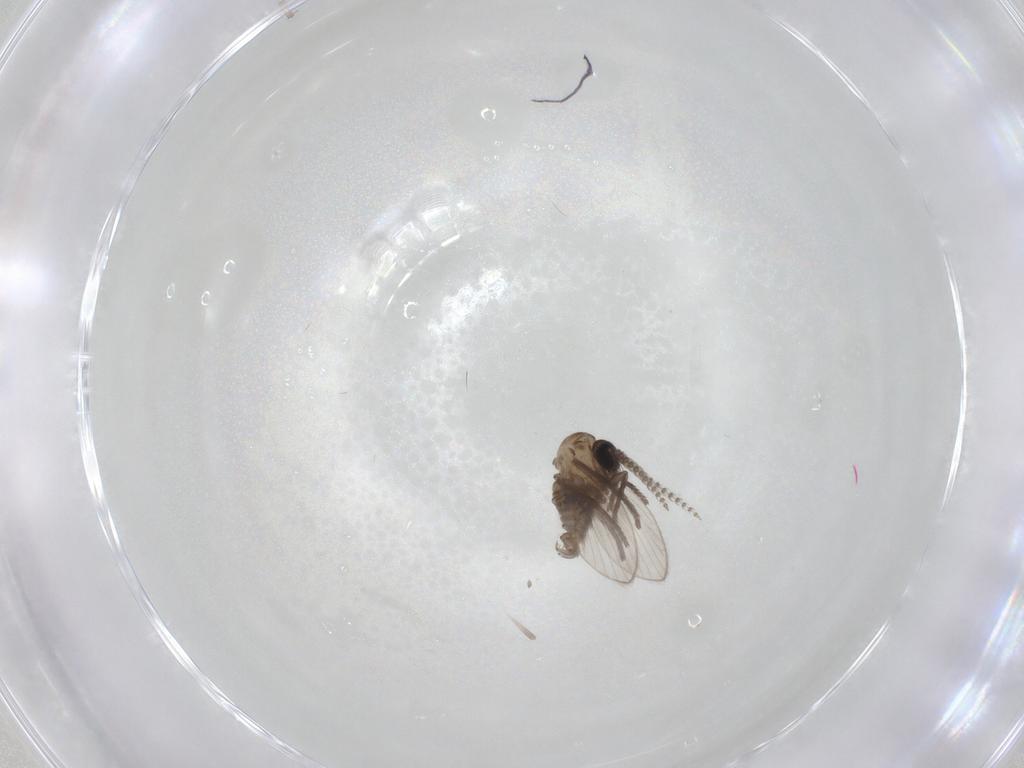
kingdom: Animalia
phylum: Arthropoda
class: Insecta
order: Diptera
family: Psychodidae
